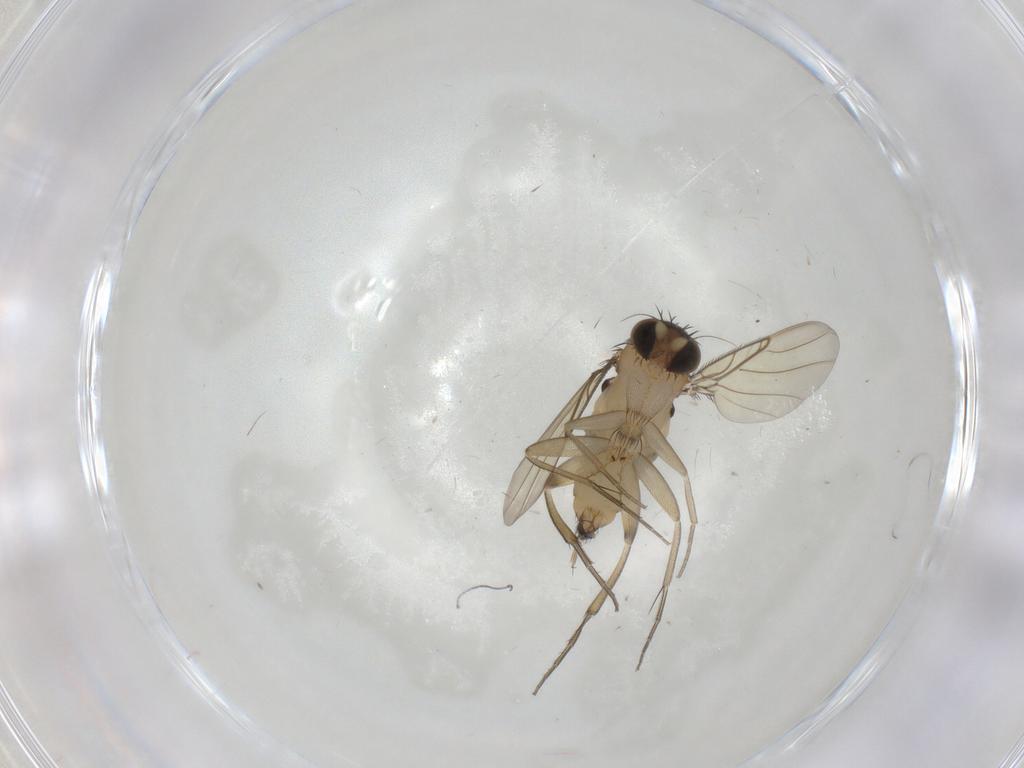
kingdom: Animalia
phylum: Arthropoda
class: Insecta
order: Diptera
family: Phoridae
